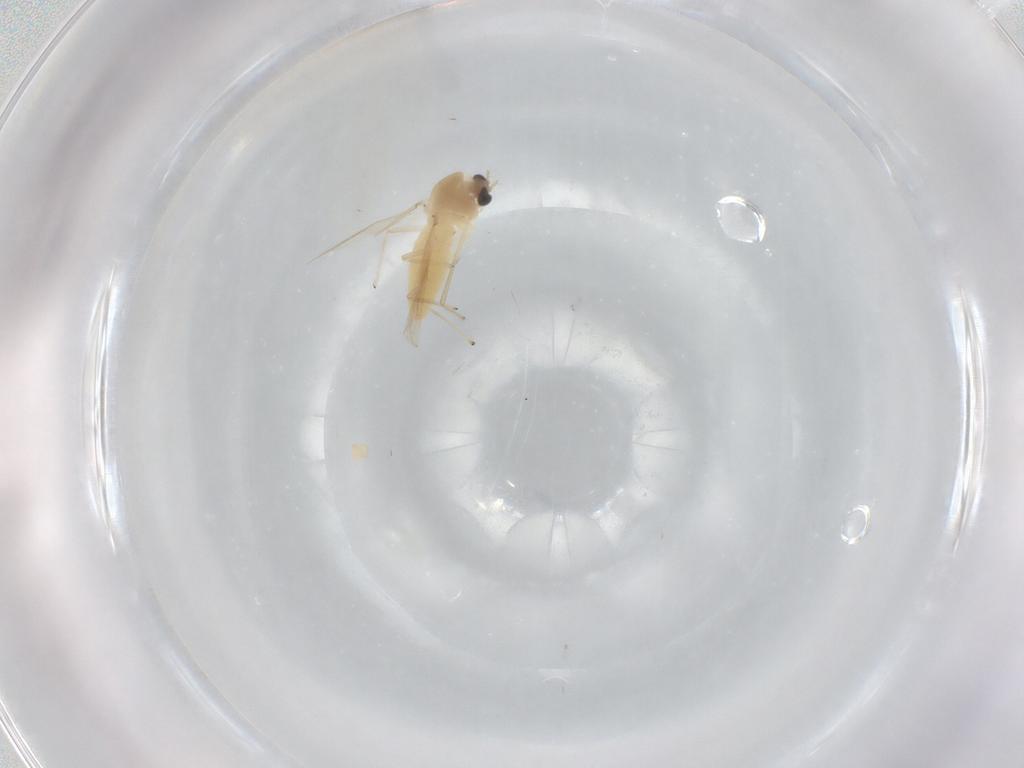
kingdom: Animalia
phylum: Arthropoda
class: Insecta
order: Diptera
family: Chironomidae
